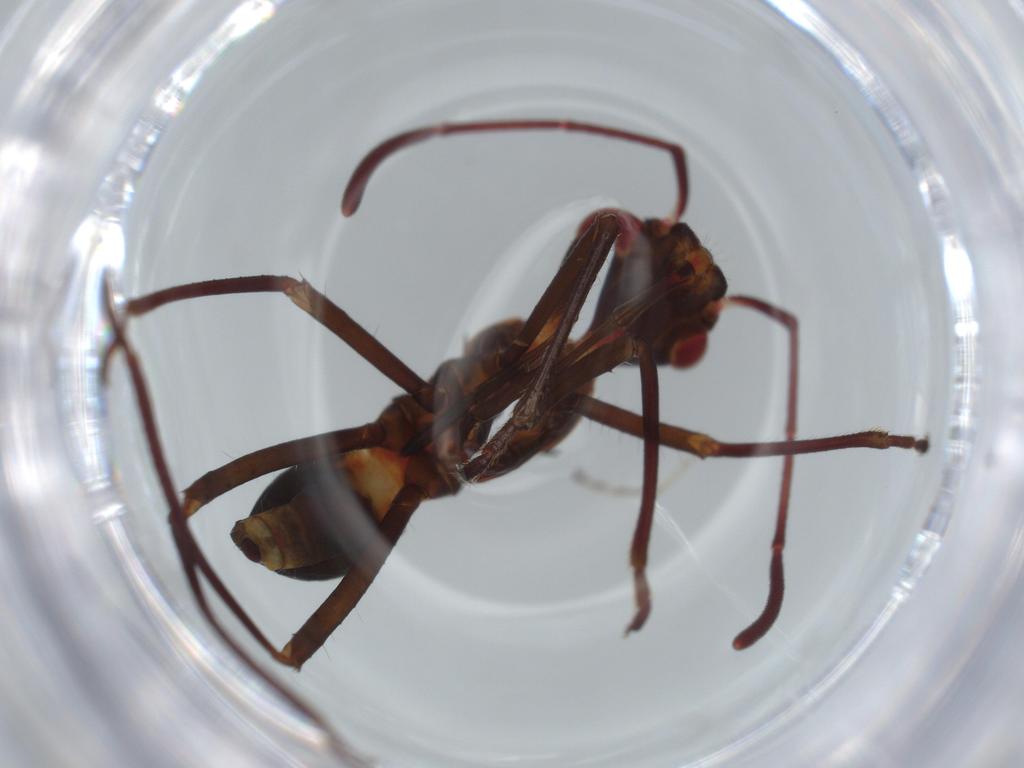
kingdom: Animalia
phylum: Arthropoda
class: Insecta
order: Hemiptera
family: Alydidae
